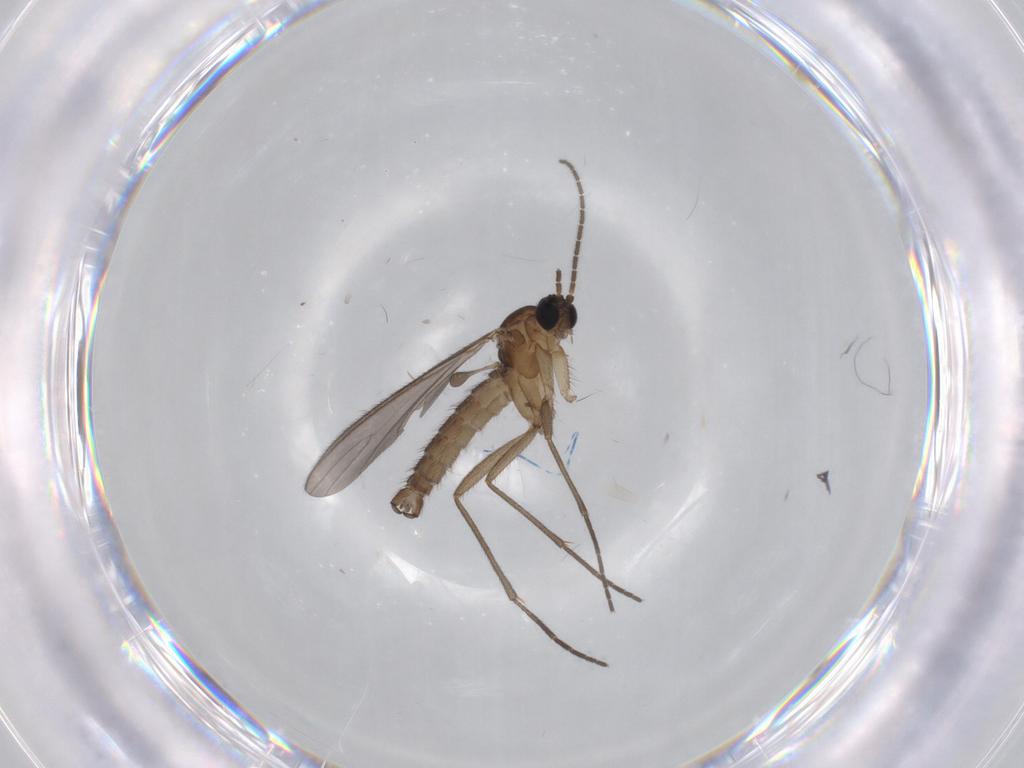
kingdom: Animalia
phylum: Arthropoda
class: Insecta
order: Diptera
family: Sciaridae
